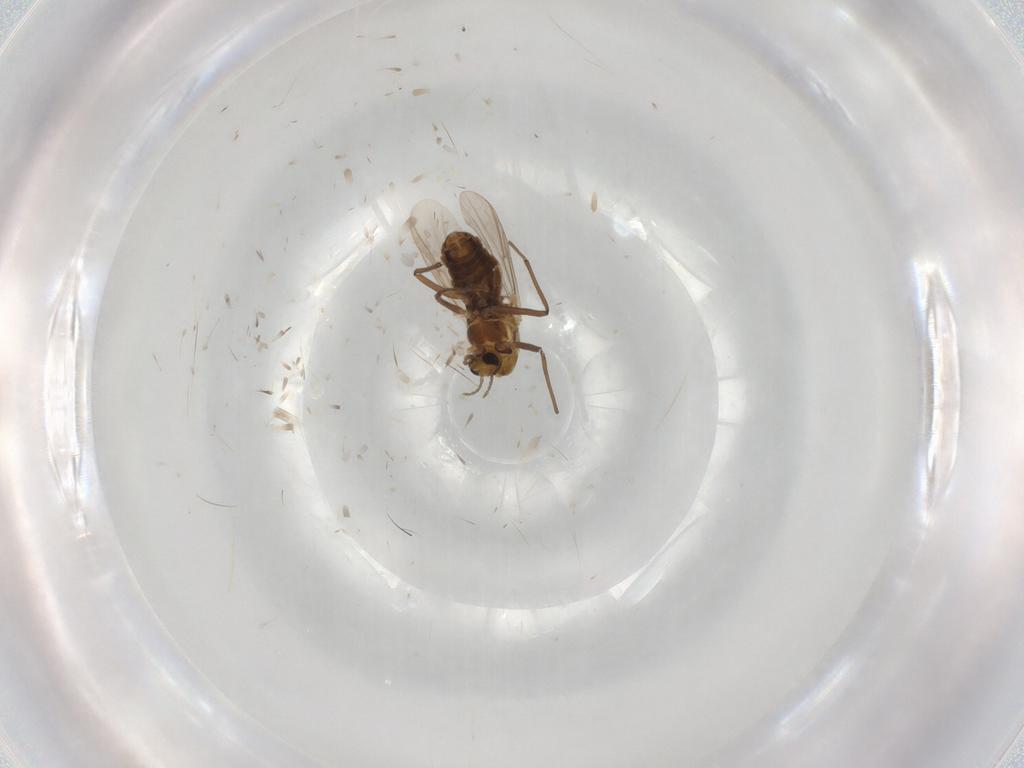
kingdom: Animalia
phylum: Arthropoda
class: Insecta
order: Diptera
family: Chironomidae
